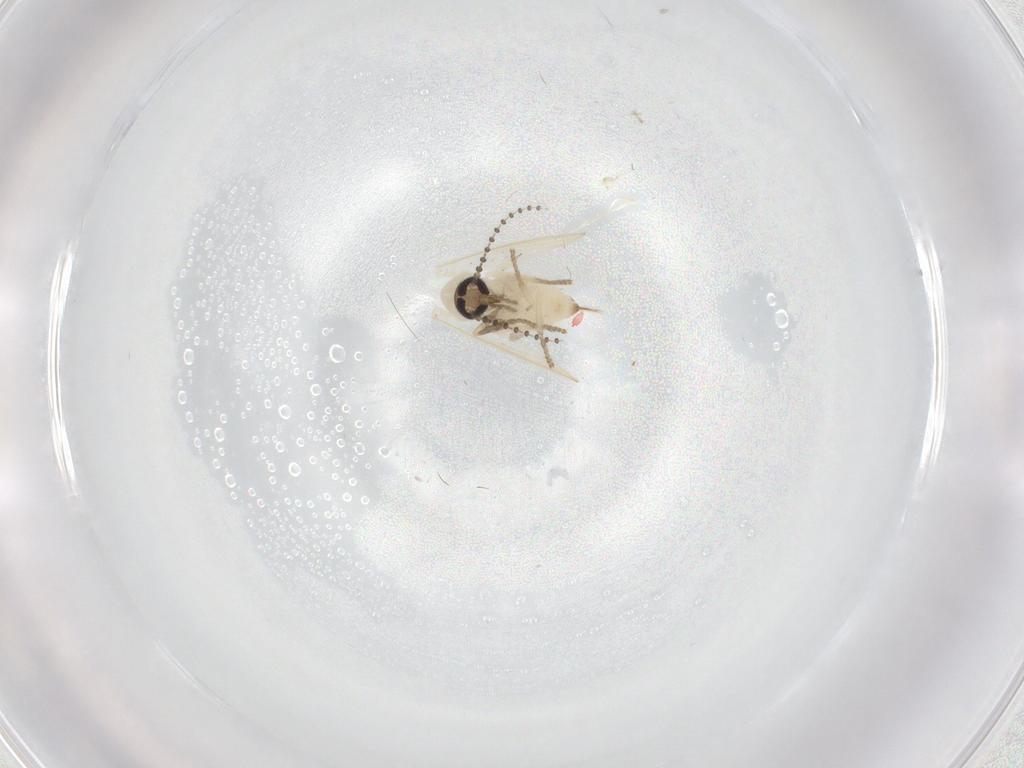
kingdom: Animalia
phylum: Arthropoda
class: Insecta
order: Diptera
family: Psychodidae
